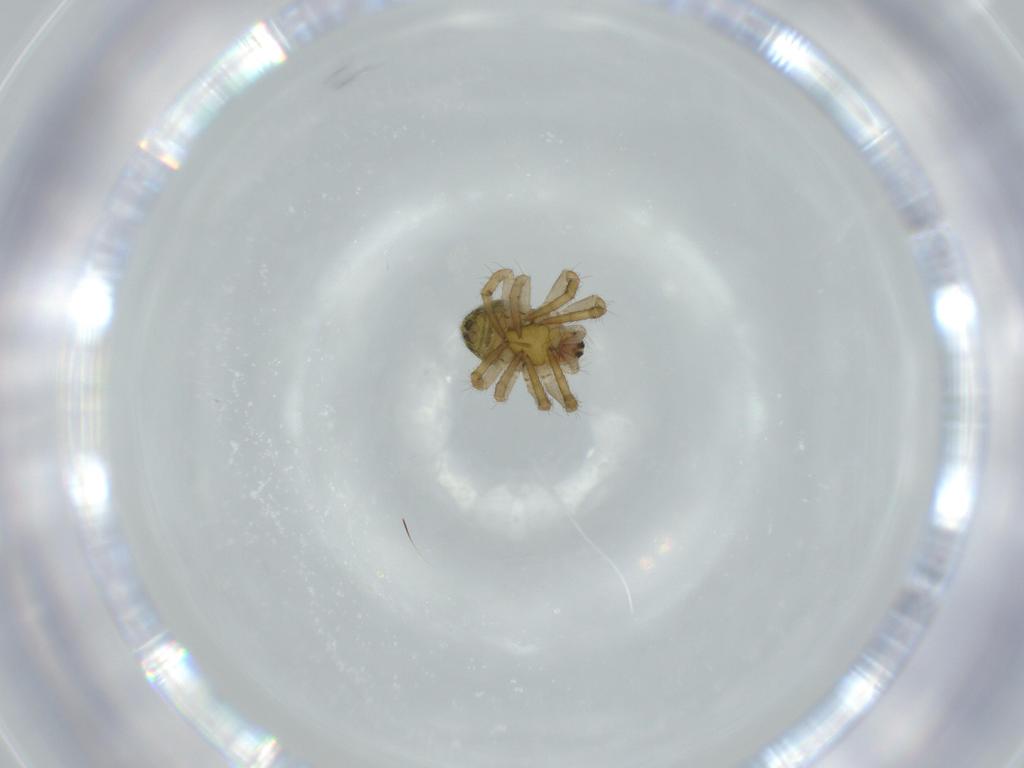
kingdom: Animalia
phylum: Arthropoda
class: Arachnida
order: Araneae
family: Araneidae
